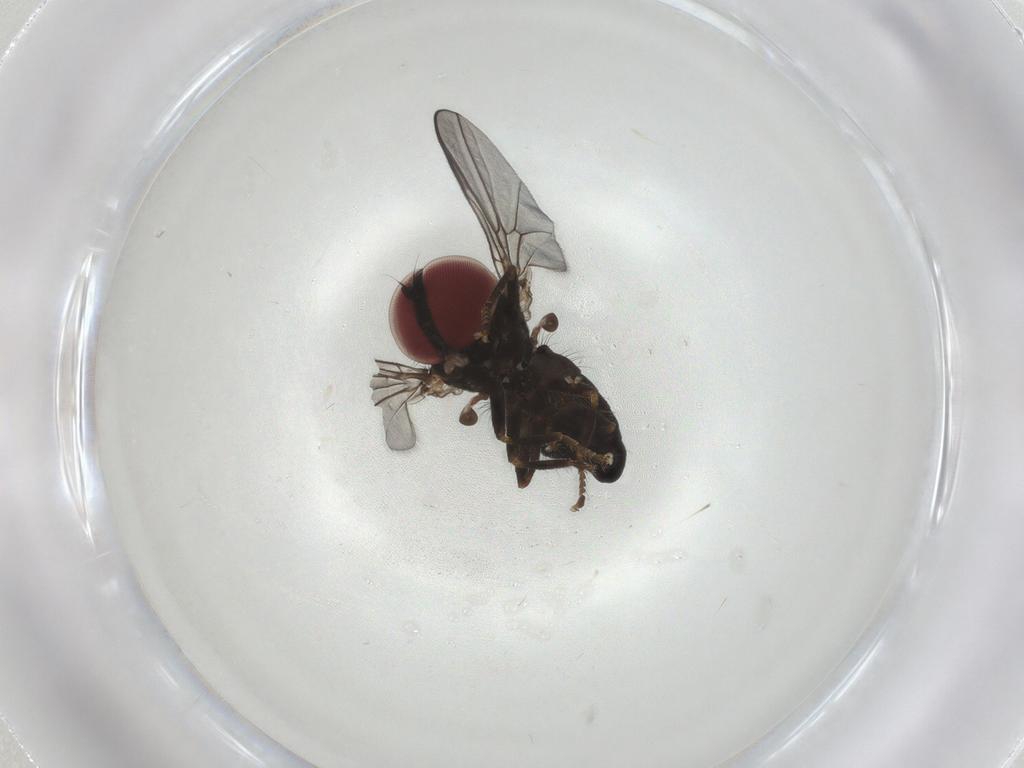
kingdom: Animalia
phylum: Arthropoda
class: Insecta
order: Diptera
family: Pipunculidae
